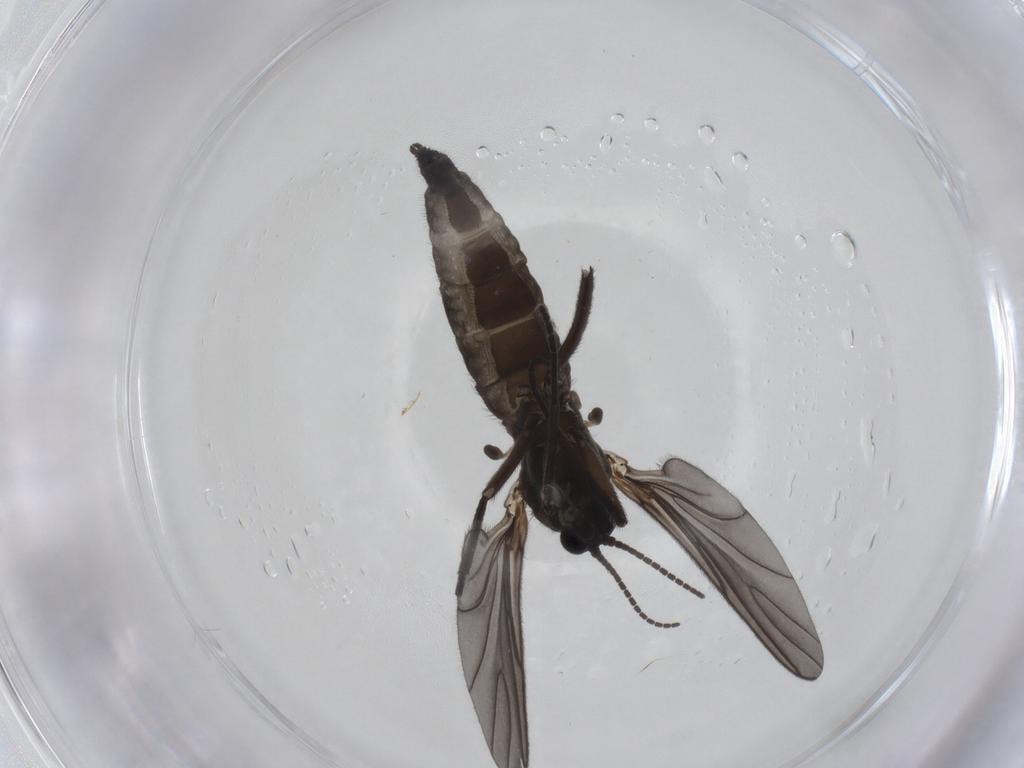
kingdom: Animalia
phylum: Arthropoda
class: Insecta
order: Diptera
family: Sciaridae
